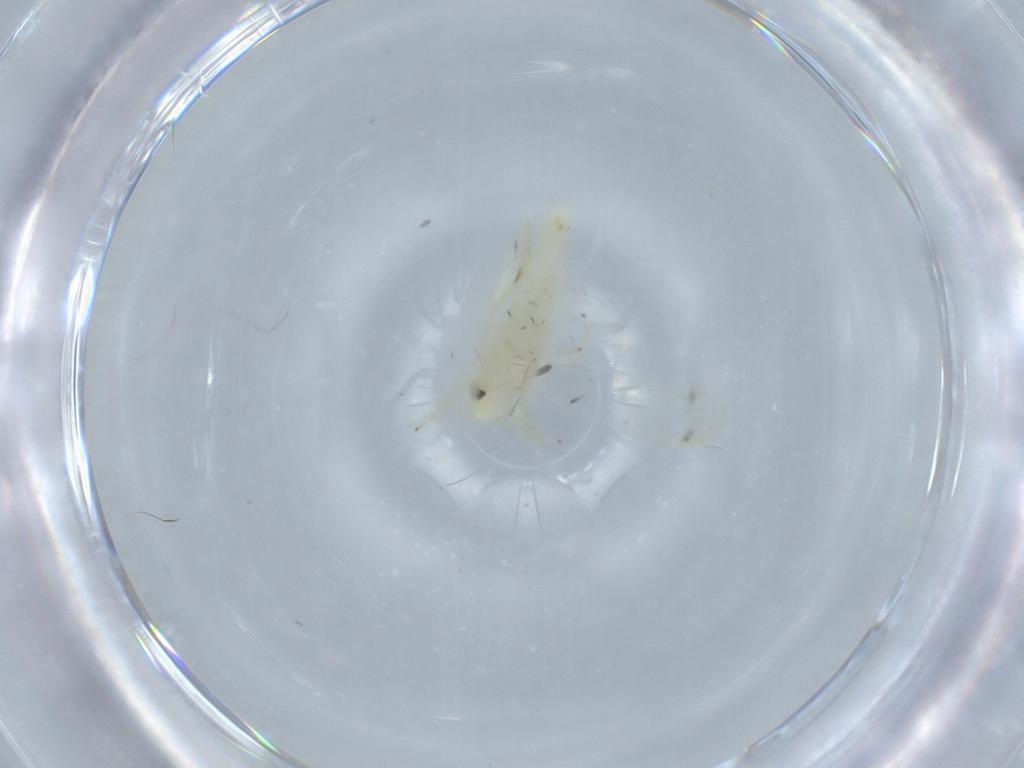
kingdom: Animalia
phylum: Arthropoda
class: Insecta
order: Hemiptera
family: Cicadellidae
